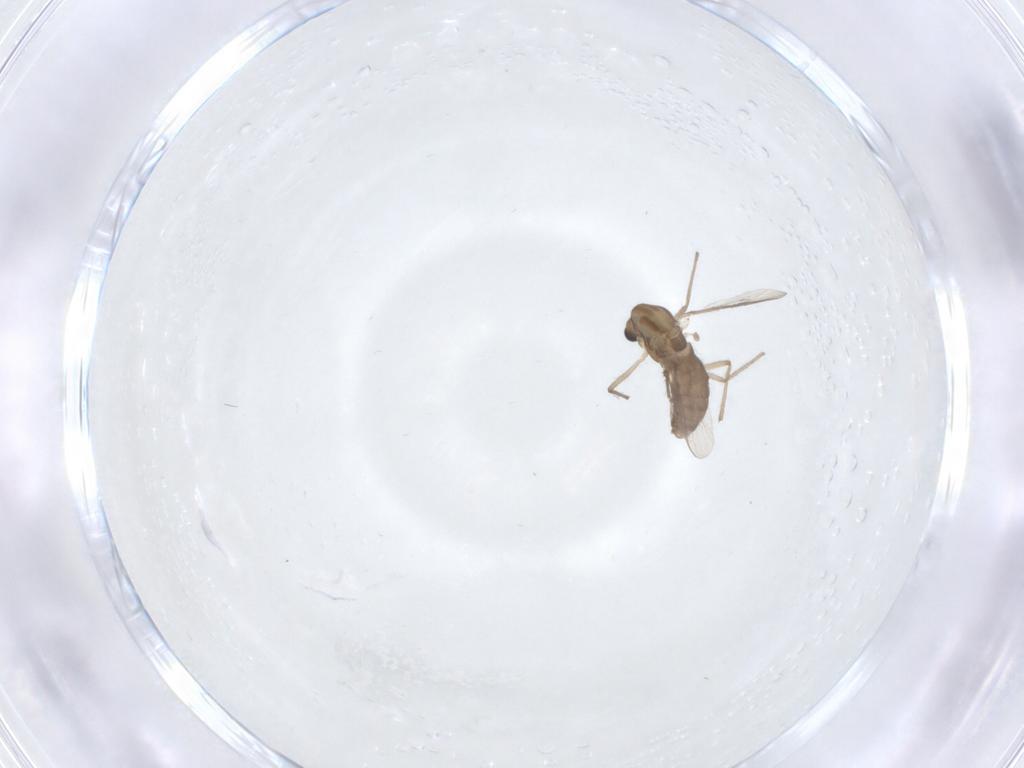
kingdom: Animalia
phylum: Arthropoda
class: Insecta
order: Diptera
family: Chironomidae
